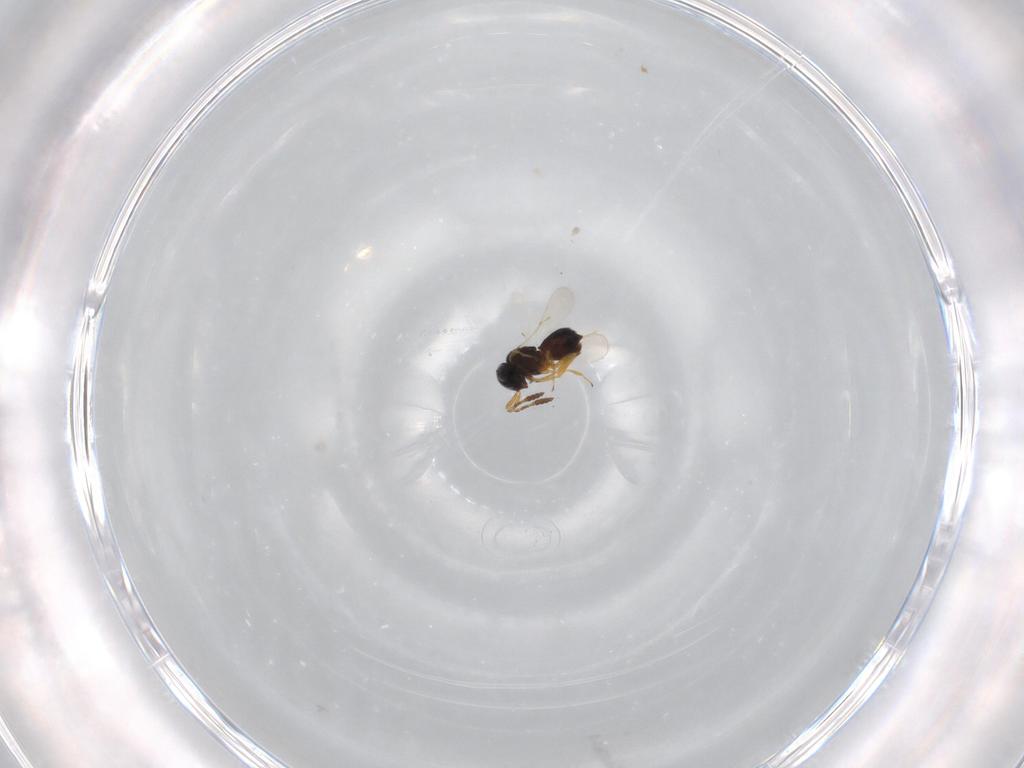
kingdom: Animalia
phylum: Arthropoda
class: Insecta
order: Hymenoptera
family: Scelionidae
